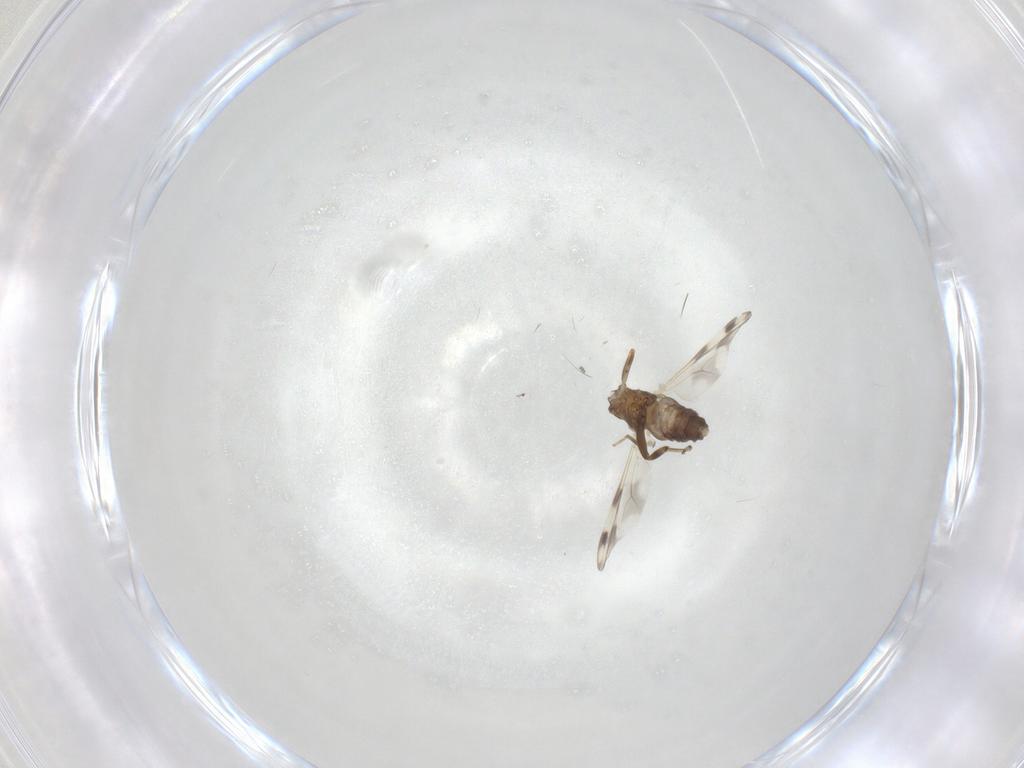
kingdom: Animalia
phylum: Arthropoda
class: Insecta
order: Diptera
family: Ceratopogonidae
